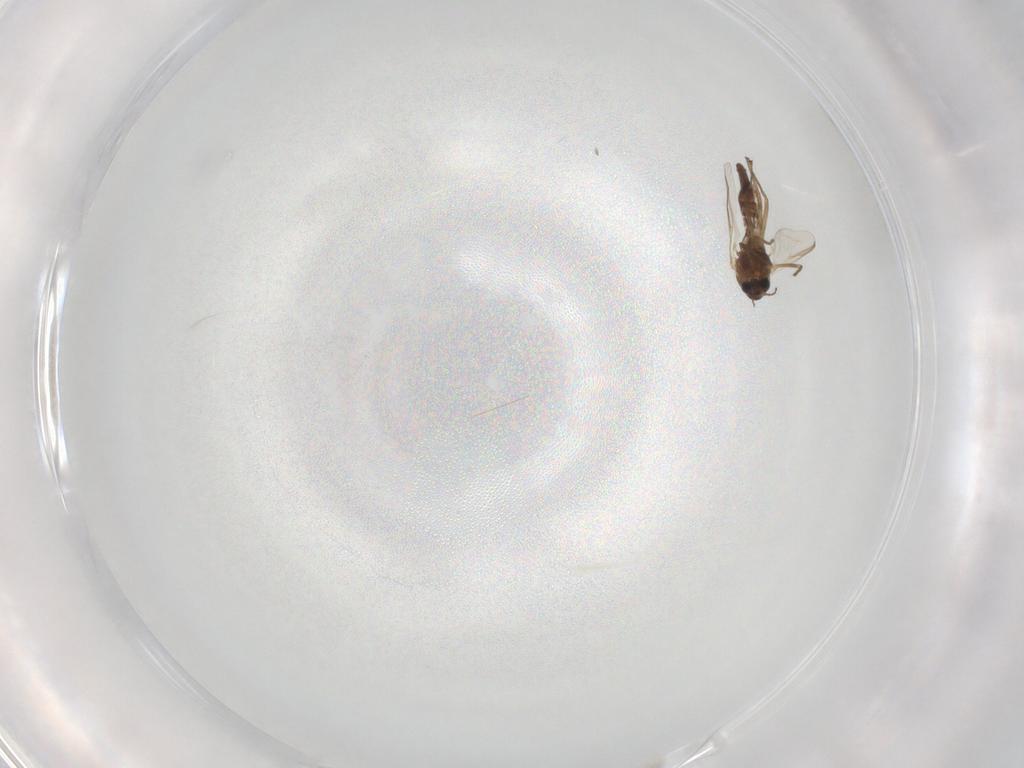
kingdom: Animalia
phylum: Arthropoda
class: Insecta
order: Diptera
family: Chironomidae
